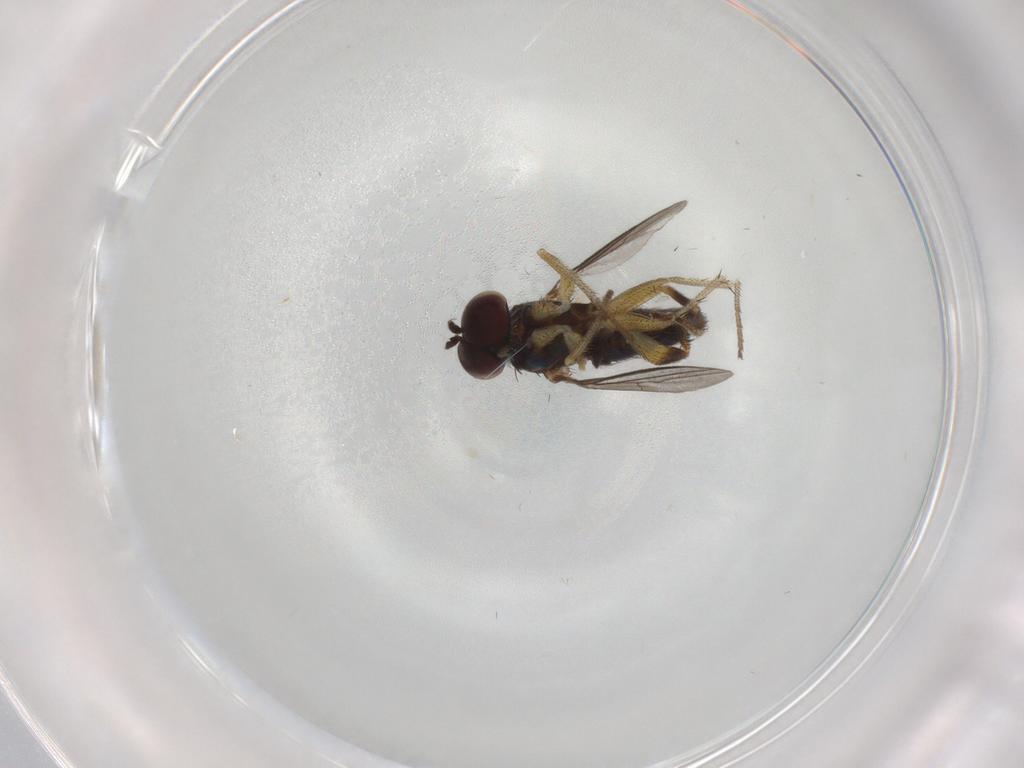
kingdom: Animalia
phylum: Arthropoda
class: Insecta
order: Diptera
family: Dolichopodidae
